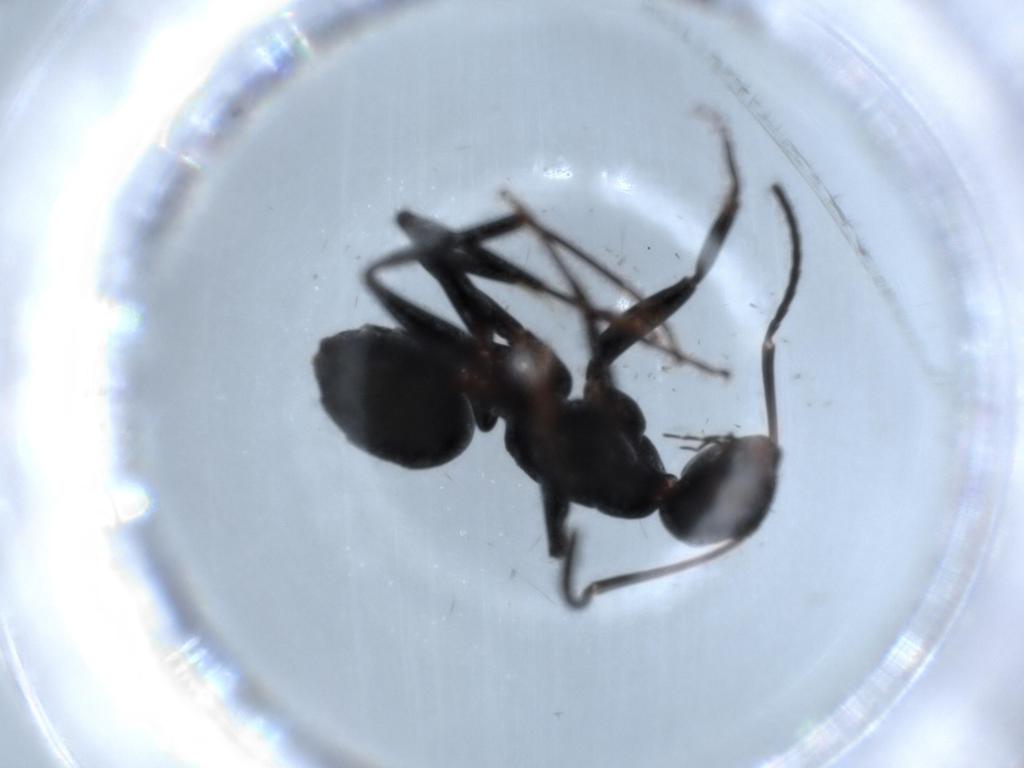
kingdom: Animalia
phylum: Arthropoda
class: Insecta
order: Hymenoptera
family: Formicidae
